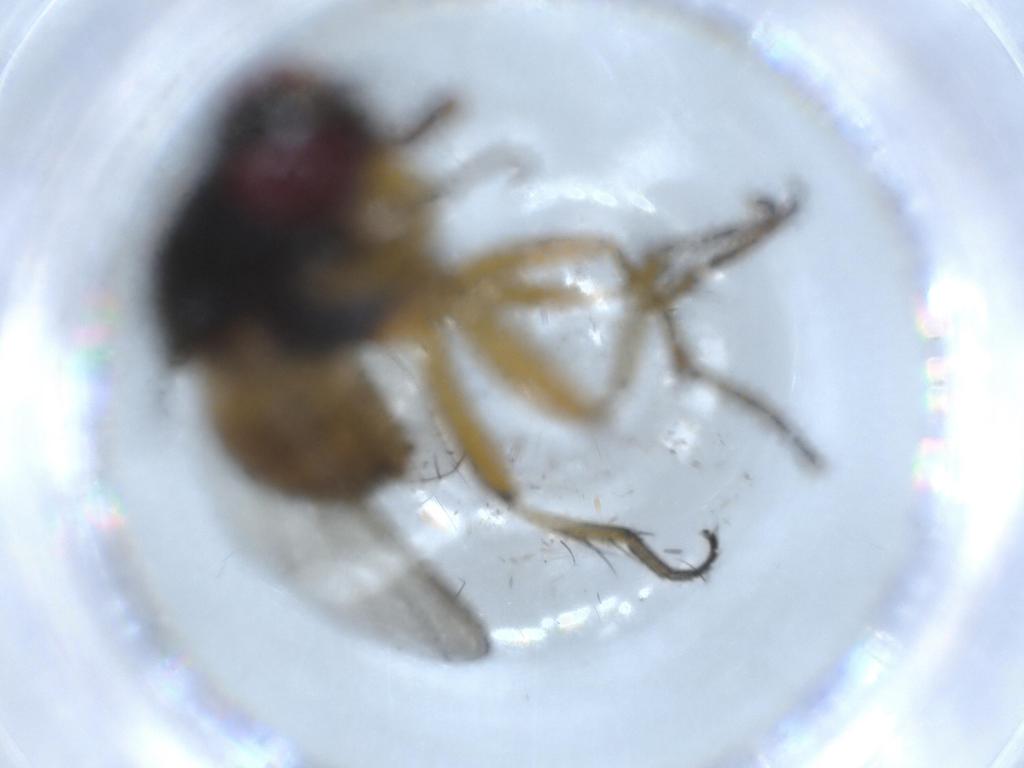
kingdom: Animalia
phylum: Arthropoda
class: Insecta
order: Diptera
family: Muscidae
